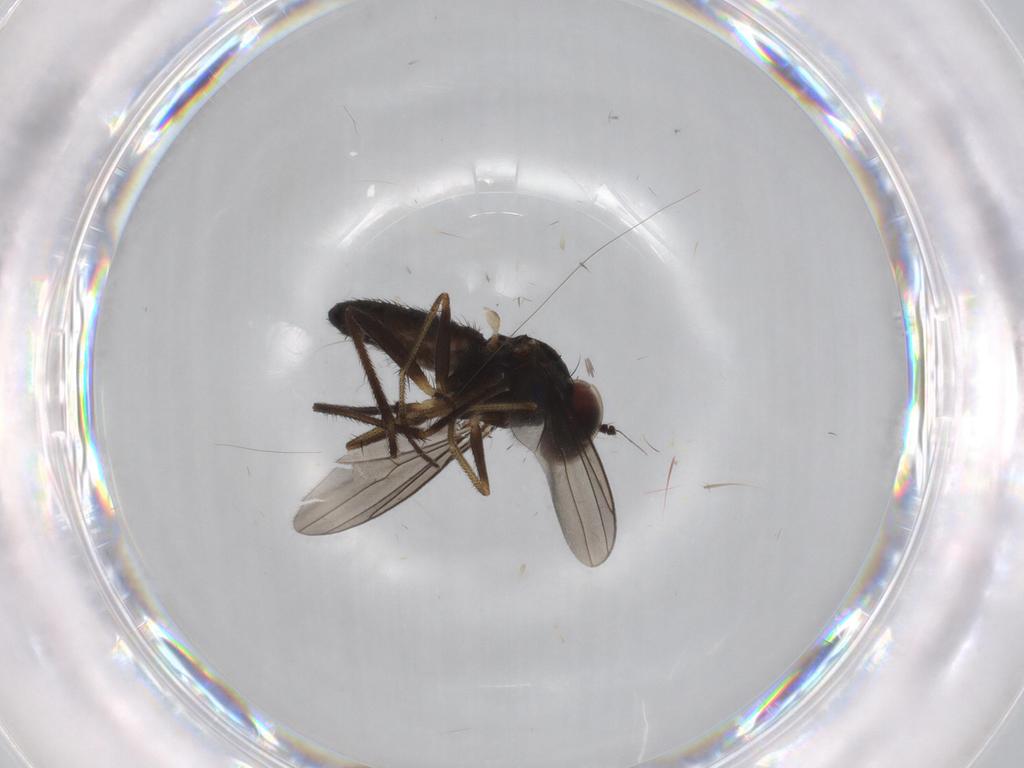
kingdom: Animalia
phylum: Arthropoda
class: Insecta
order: Diptera
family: Dolichopodidae
